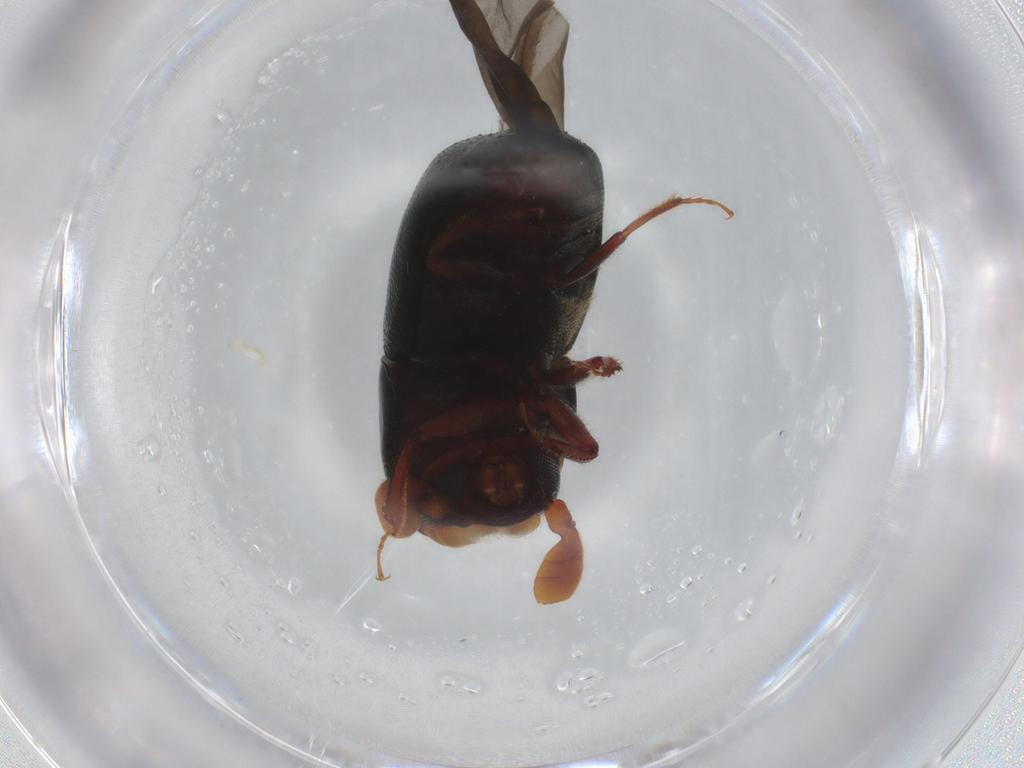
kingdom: Animalia
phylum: Arthropoda
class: Insecta
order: Coleoptera
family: Curculionidae
